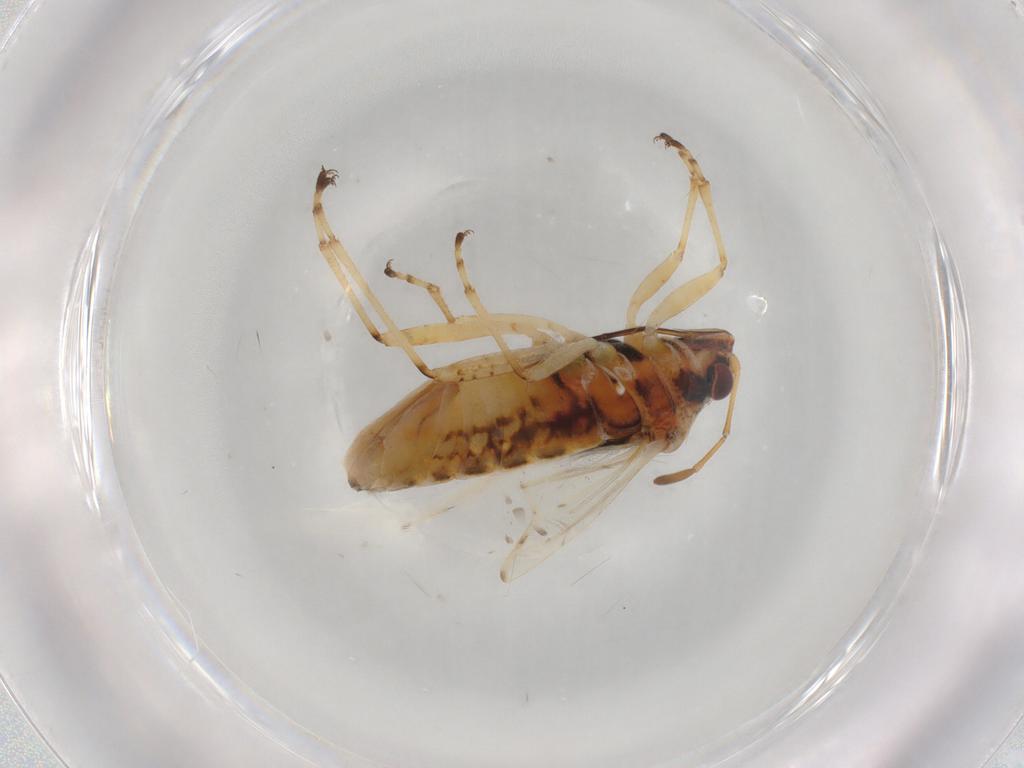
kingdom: Animalia
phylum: Arthropoda
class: Insecta
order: Hemiptera
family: Lygaeidae
